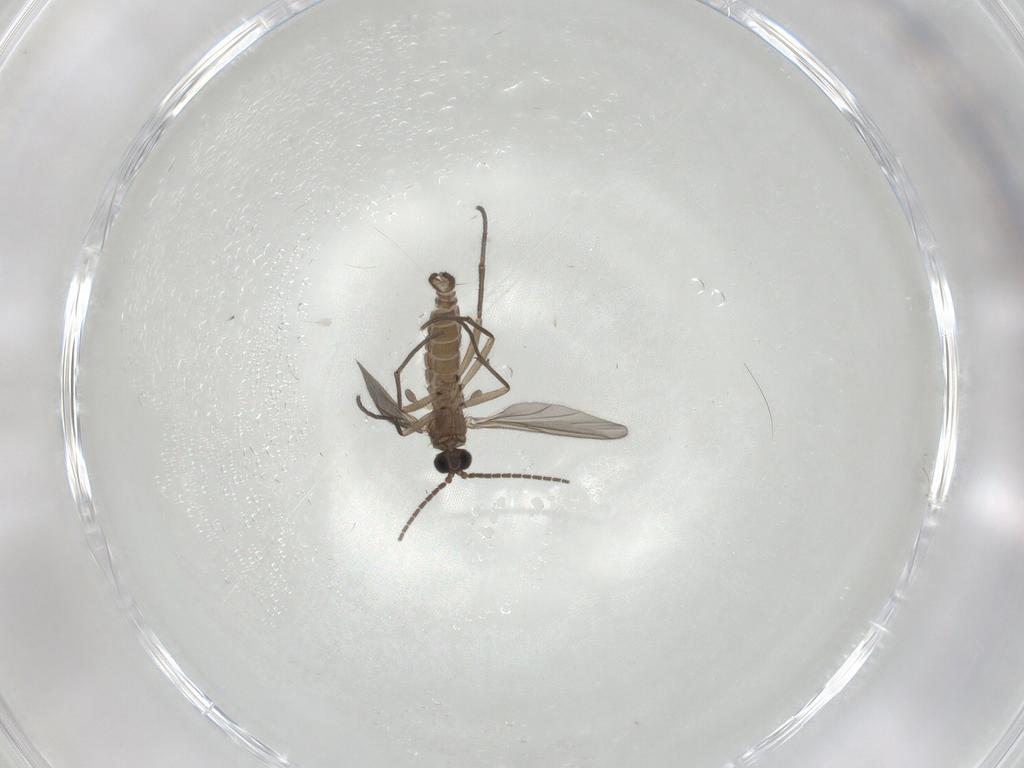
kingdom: Animalia
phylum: Arthropoda
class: Insecta
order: Diptera
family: Sciaridae
